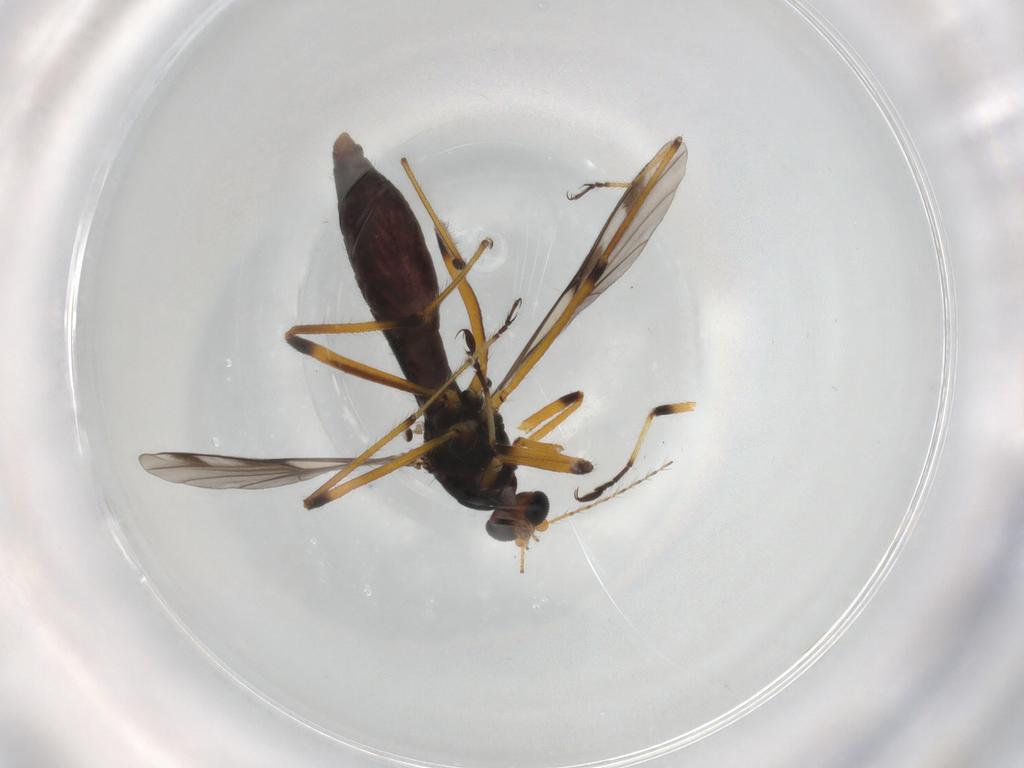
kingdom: Animalia
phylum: Arthropoda
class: Insecta
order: Diptera
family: Ceratopogonidae
